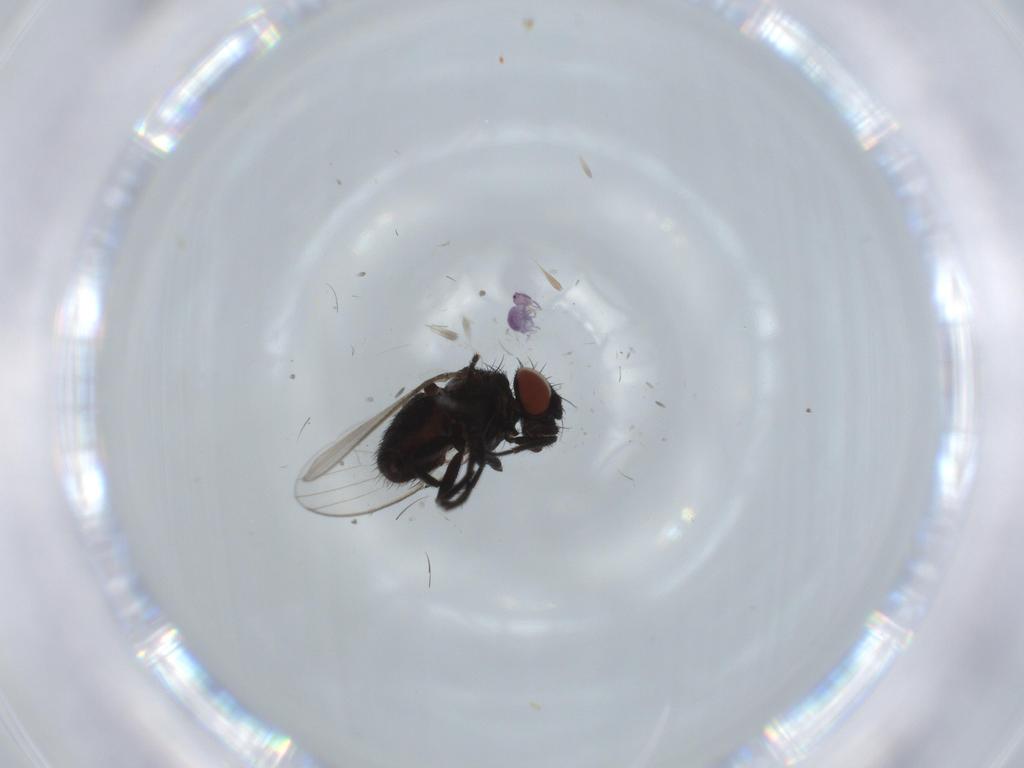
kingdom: Animalia
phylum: Arthropoda
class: Insecta
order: Diptera
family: Milichiidae
